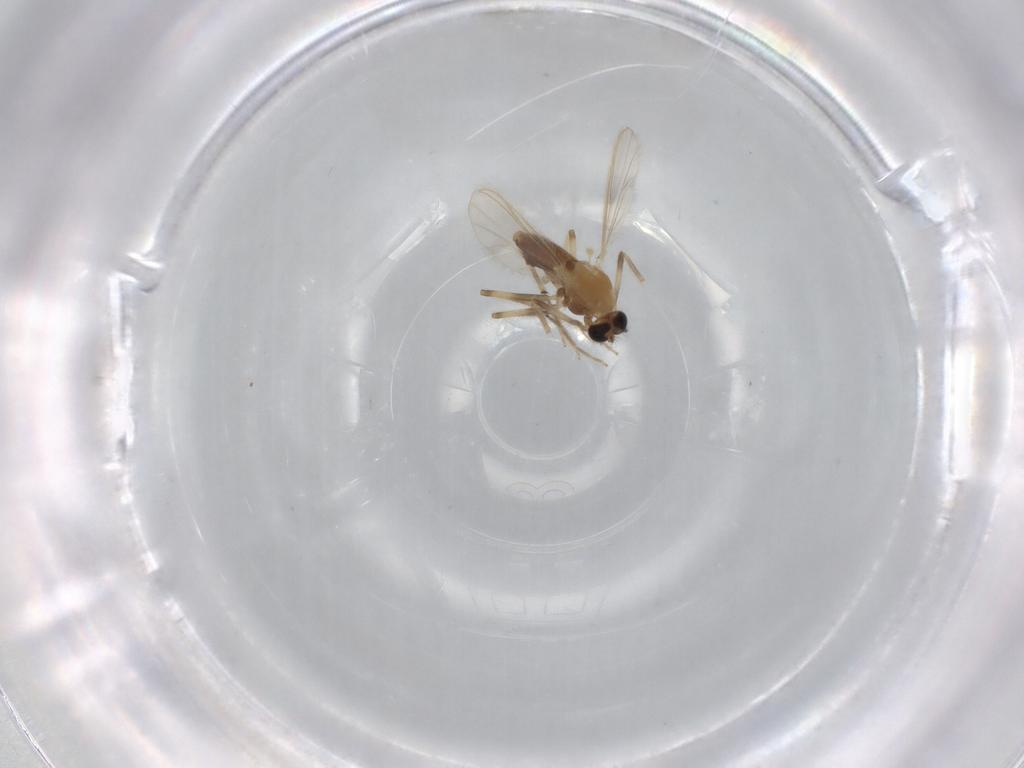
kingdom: Animalia
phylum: Arthropoda
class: Insecta
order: Diptera
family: Chironomidae
